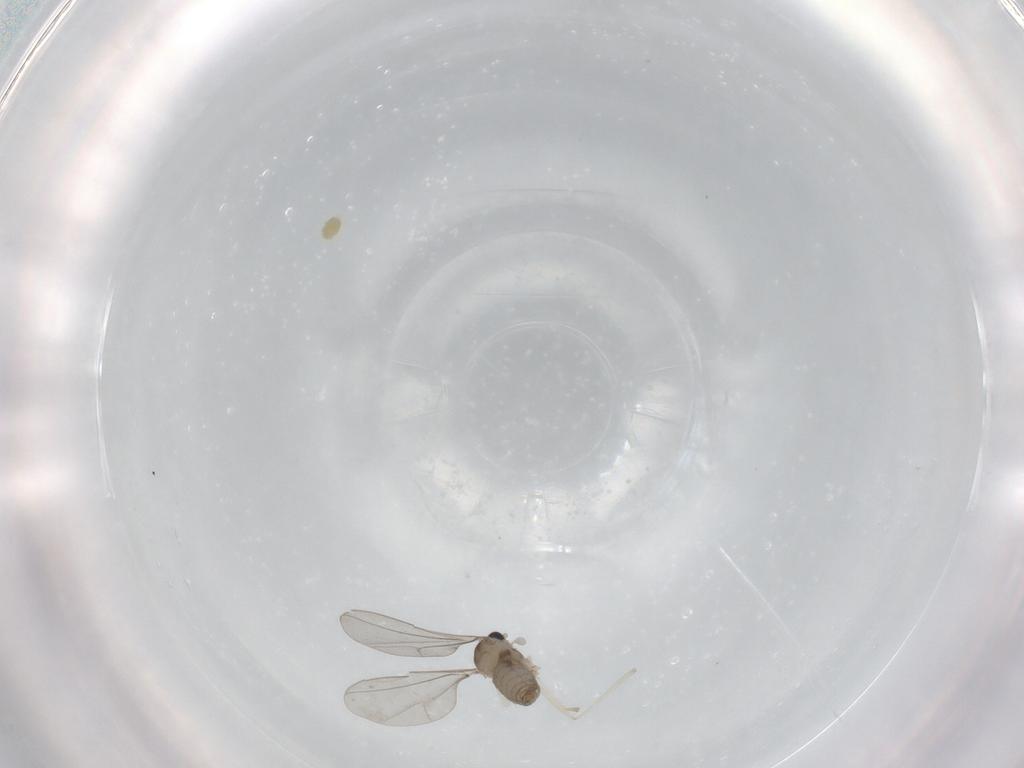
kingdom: Animalia
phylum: Arthropoda
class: Insecta
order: Diptera
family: Cecidomyiidae
